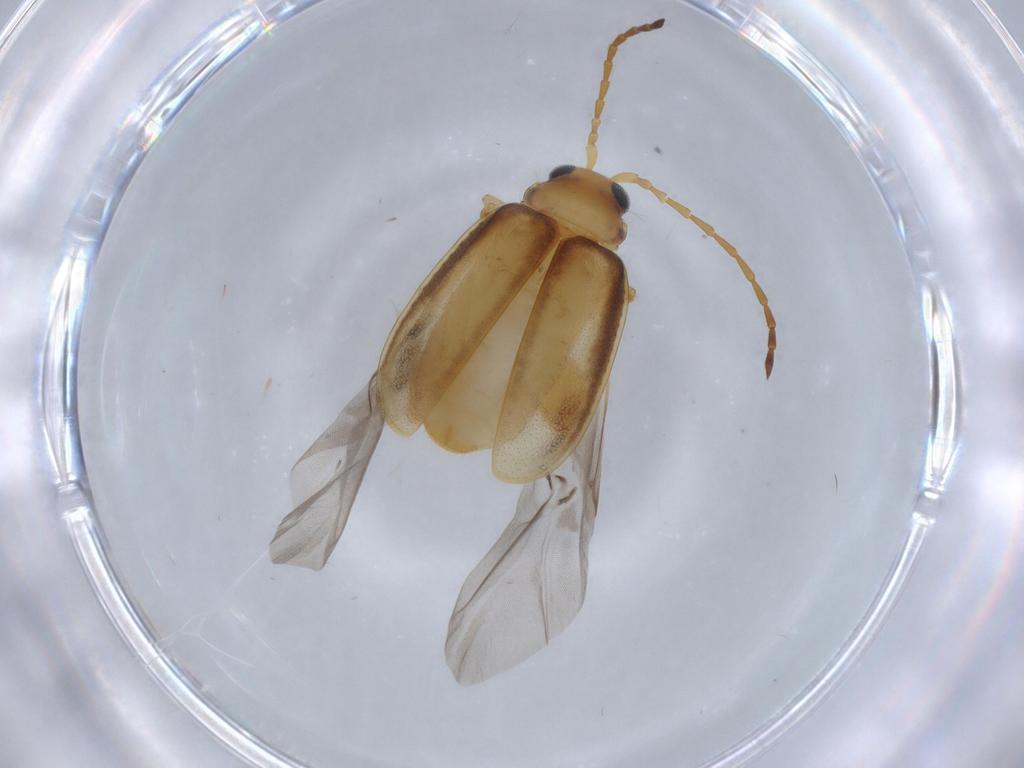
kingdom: Animalia
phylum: Arthropoda
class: Insecta
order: Coleoptera
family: Chrysomelidae
